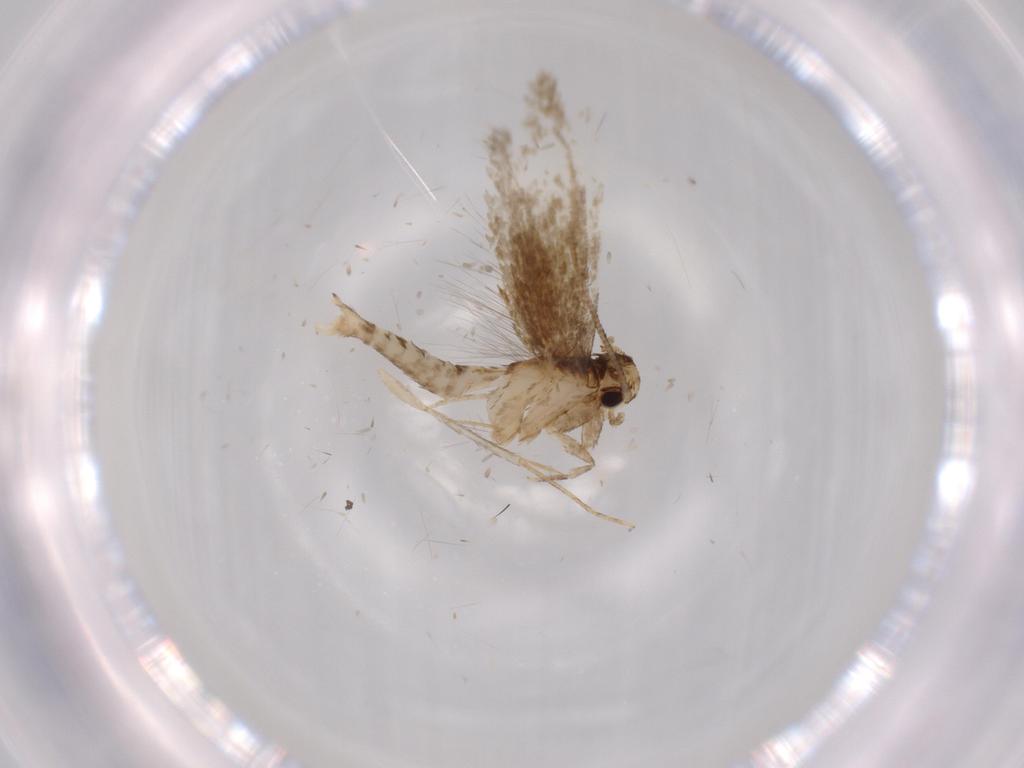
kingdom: Animalia
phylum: Arthropoda
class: Insecta
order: Lepidoptera
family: Tineidae
